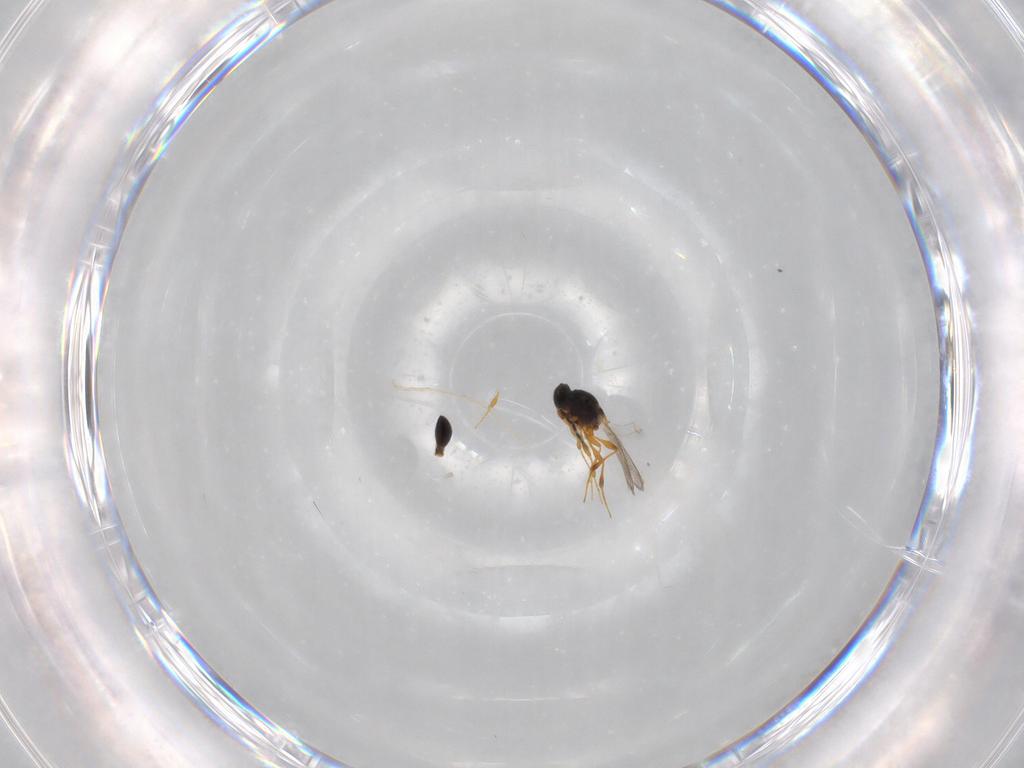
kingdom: Animalia
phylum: Arthropoda
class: Insecta
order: Hymenoptera
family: Platygastridae
